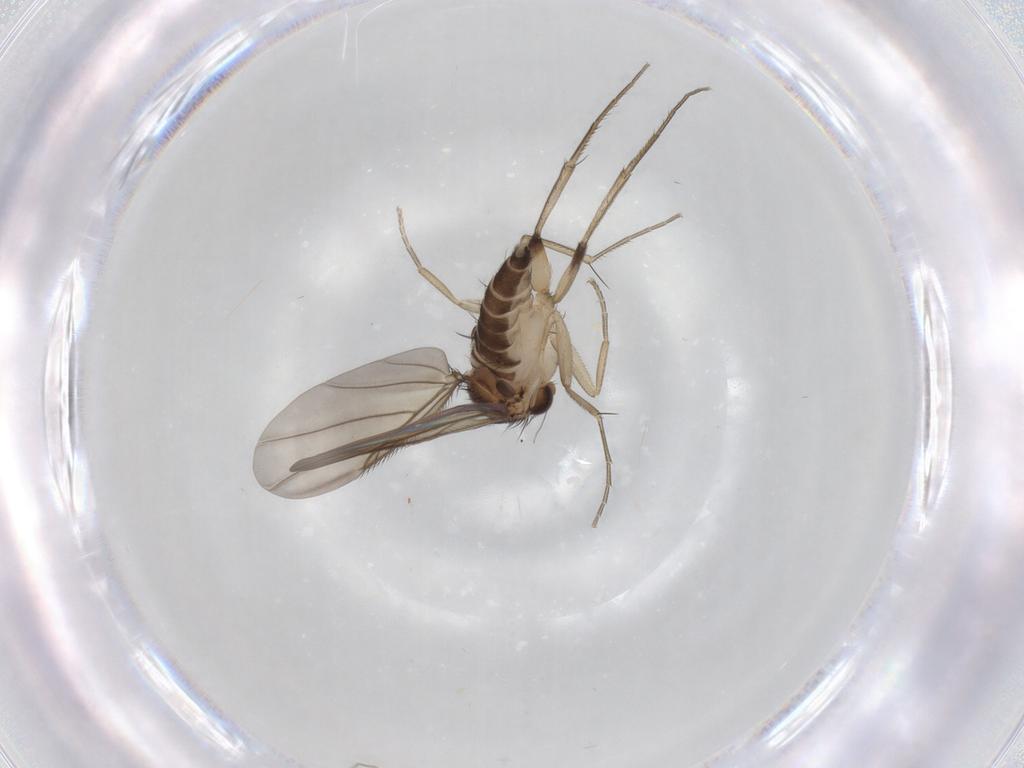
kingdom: Animalia
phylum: Arthropoda
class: Insecta
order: Diptera
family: Phoridae
